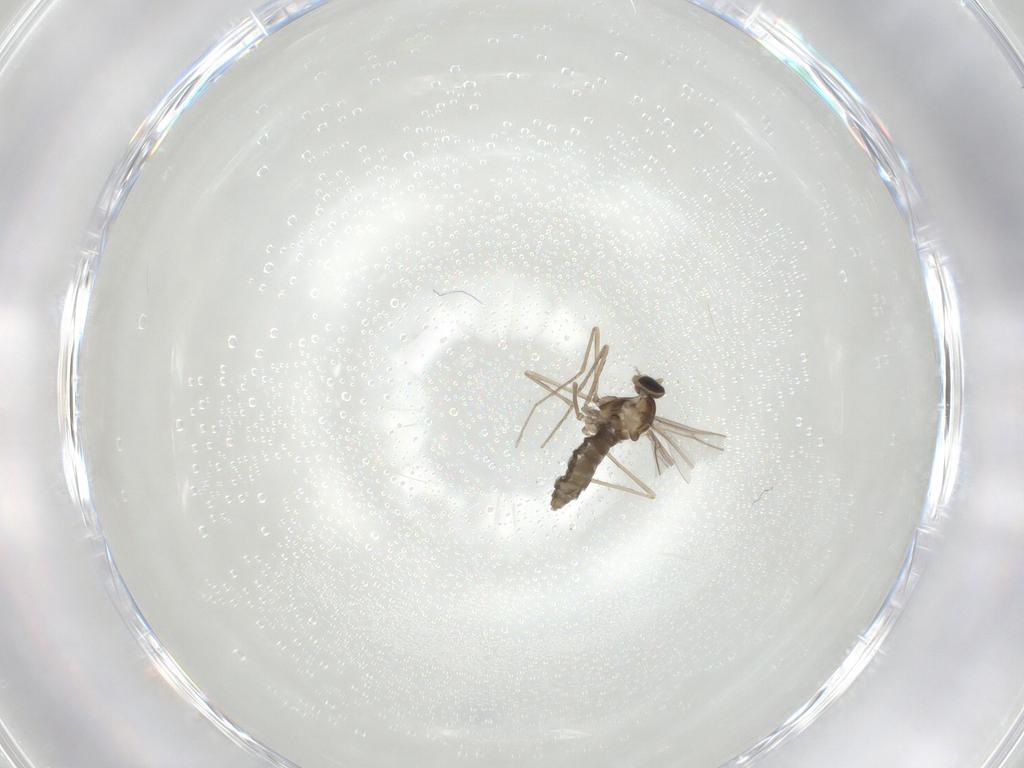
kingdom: Animalia
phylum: Arthropoda
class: Insecta
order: Diptera
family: Cecidomyiidae
